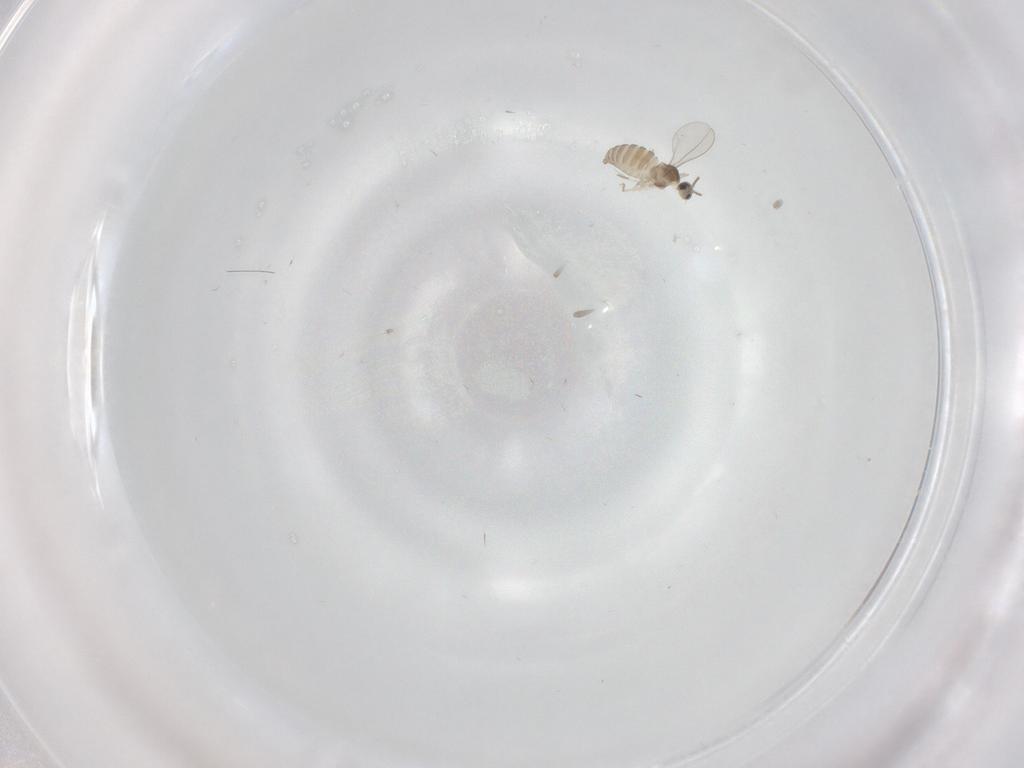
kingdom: Animalia
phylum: Arthropoda
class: Insecta
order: Diptera
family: Cecidomyiidae
